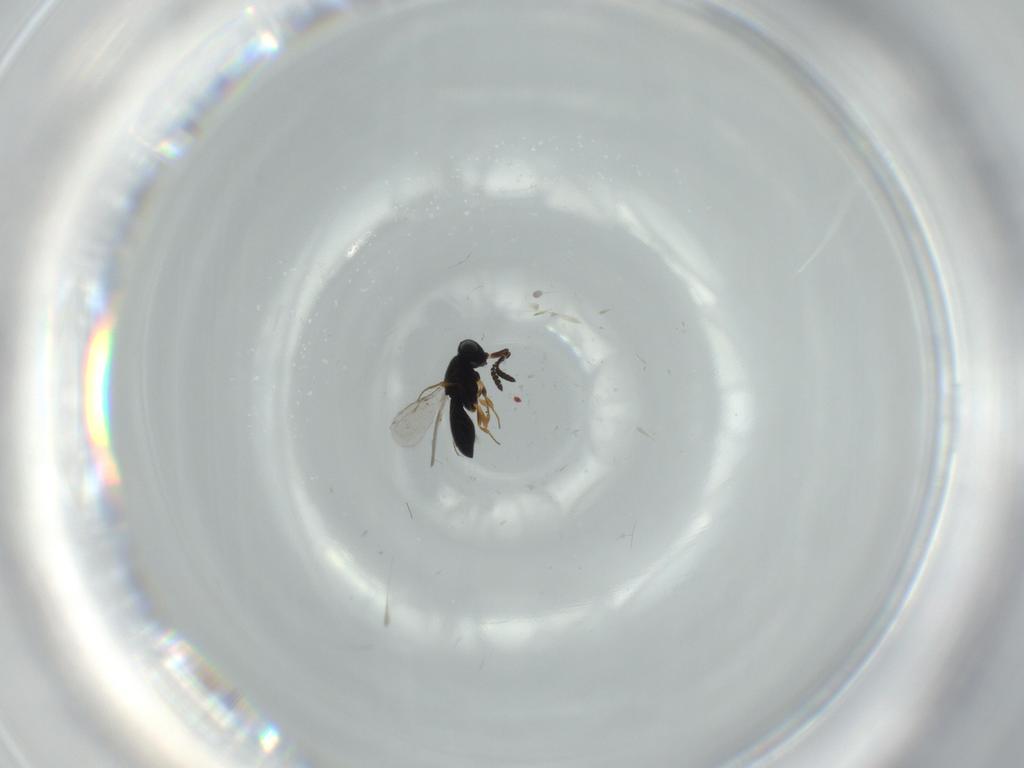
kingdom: Animalia
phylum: Arthropoda
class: Insecta
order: Hymenoptera
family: Scelionidae
